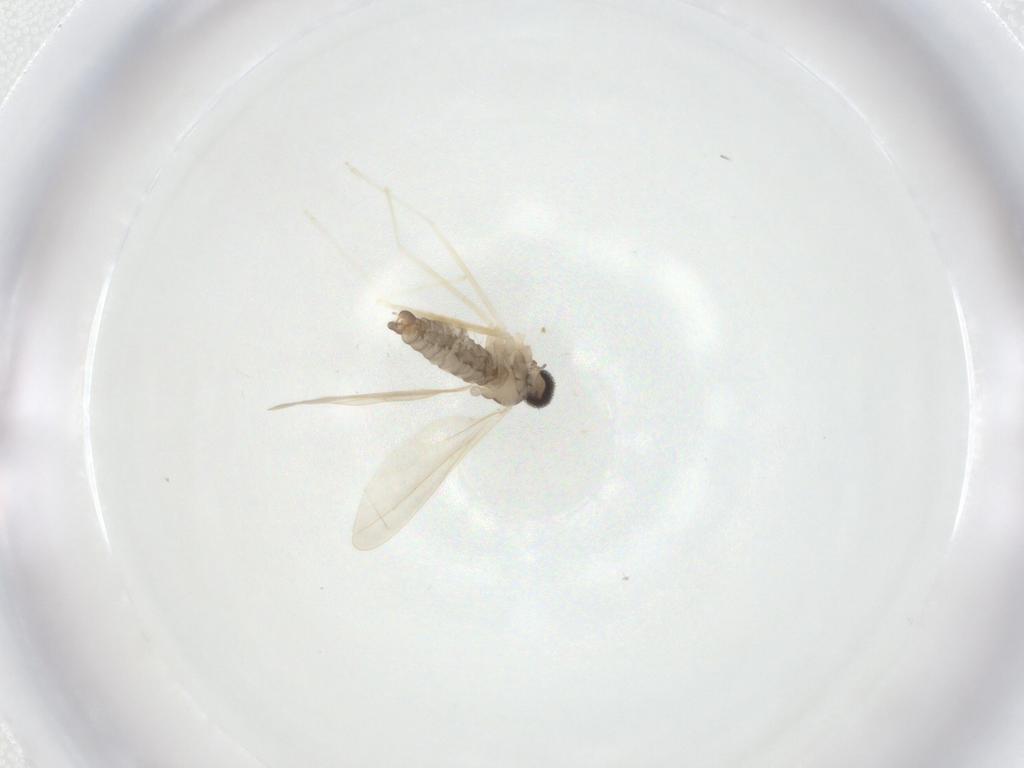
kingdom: Animalia
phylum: Arthropoda
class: Insecta
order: Diptera
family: Cecidomyiidae
